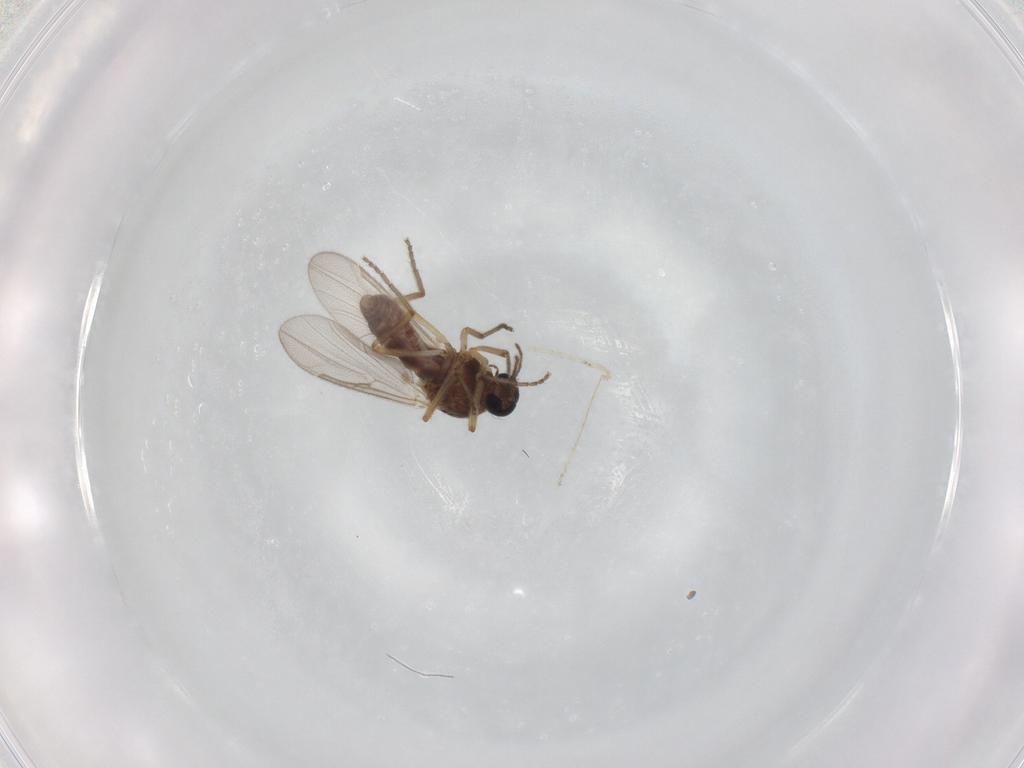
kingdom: Animalia
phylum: Arthropoda
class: Insecta
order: Diptera
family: Ceratopogonidae
